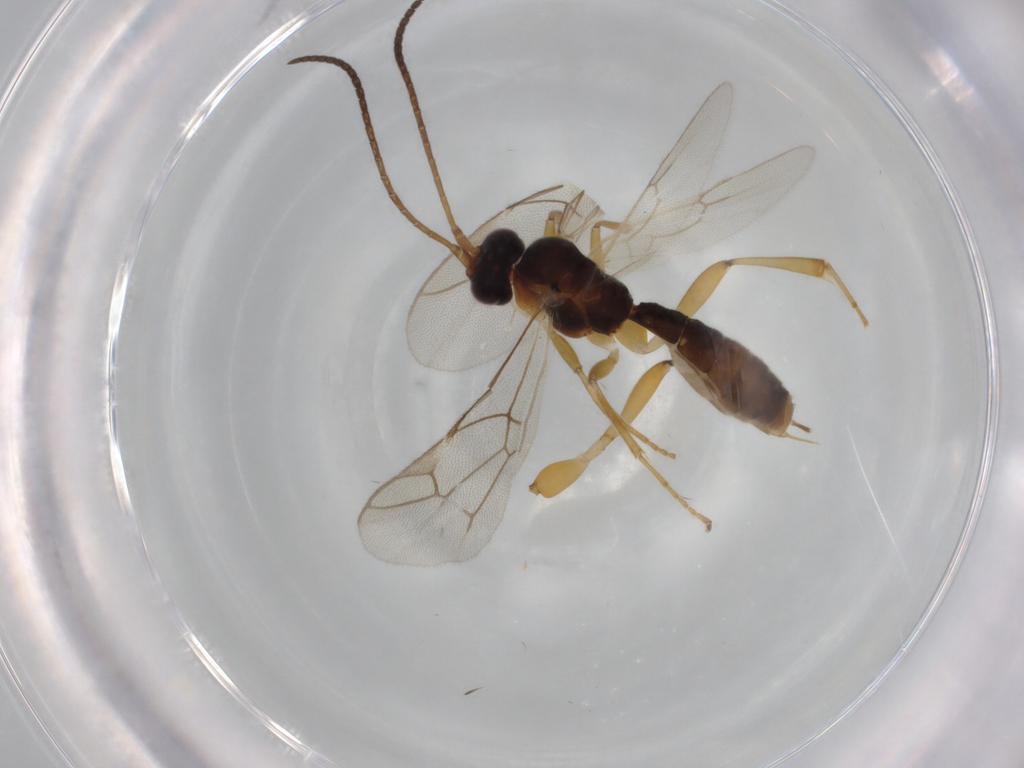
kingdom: Animalia
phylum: Arthropoda
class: Insecta
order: Hymenoptera
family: Ichneumonidae
